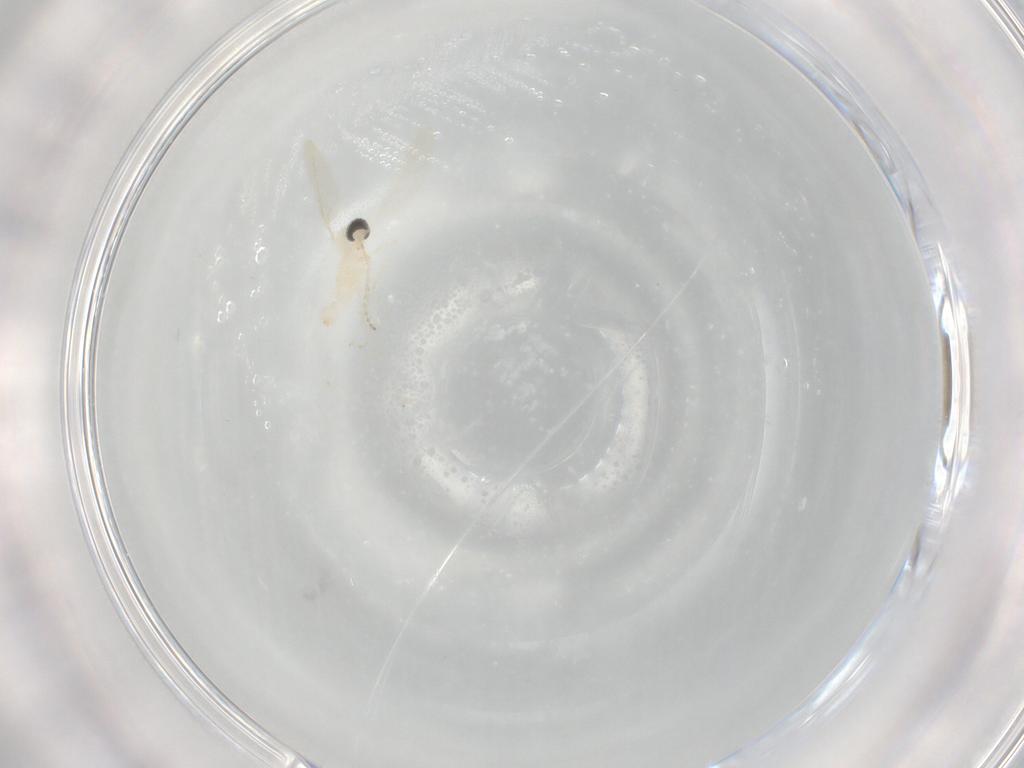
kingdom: Animalia
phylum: Arthropoda
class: Insecta
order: Diptera
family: Cecidomyiidae
